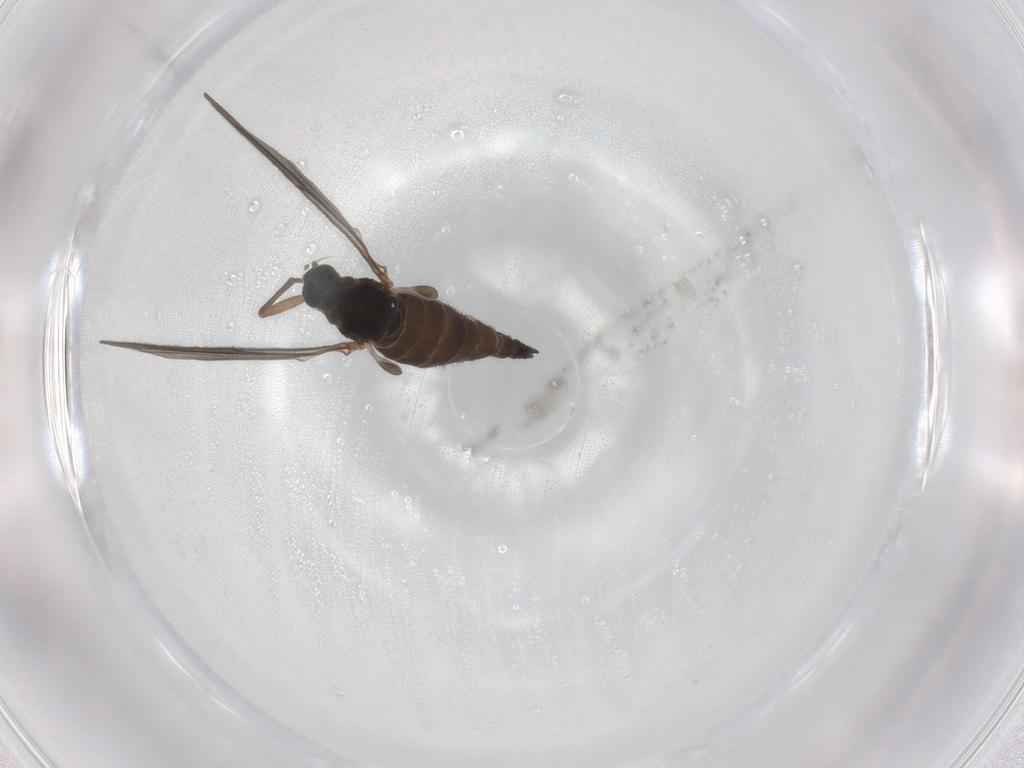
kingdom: Animalia
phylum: Arthropoda
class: Insecta
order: Diptera
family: Sciaridae
